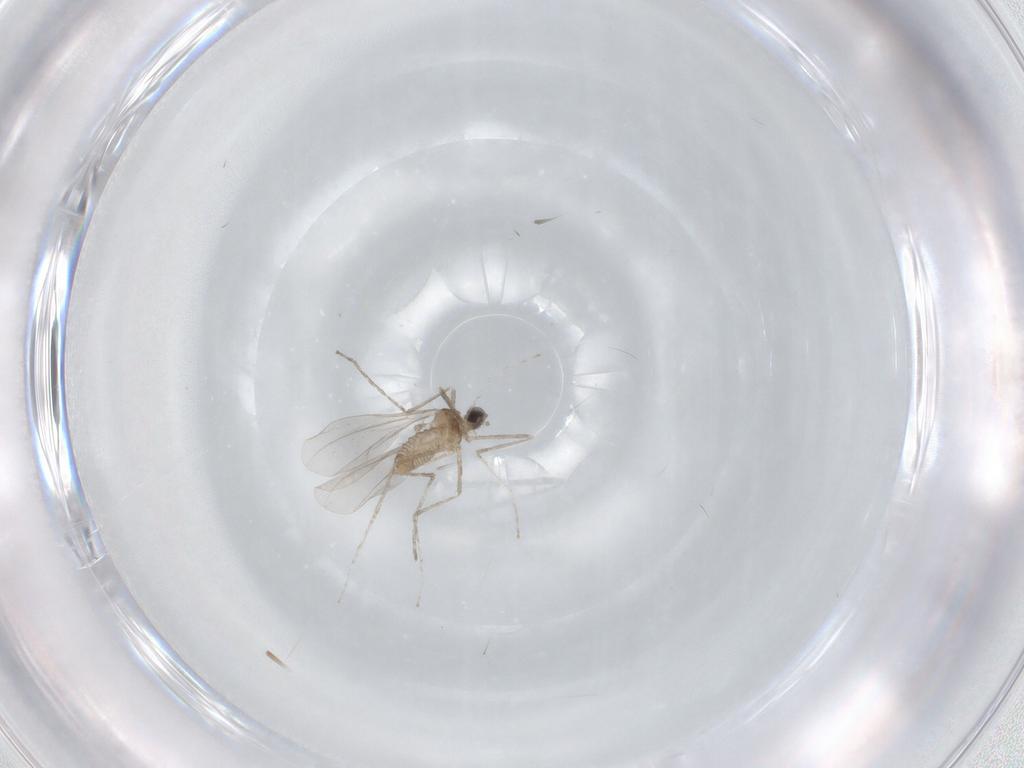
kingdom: Animalia
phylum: Arthropoda
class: Insecta
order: Diptera
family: Cecidomyiidae
